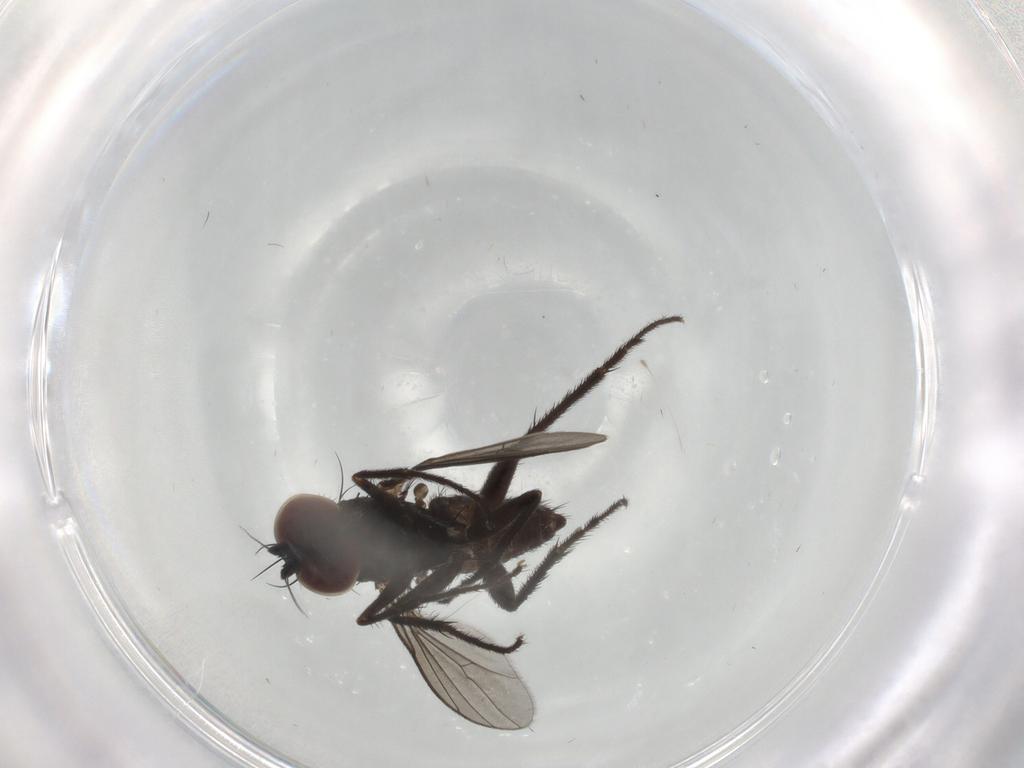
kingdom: Animalia
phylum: Arthropoda
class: Insecta
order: Diptera
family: Dolichopodidae
